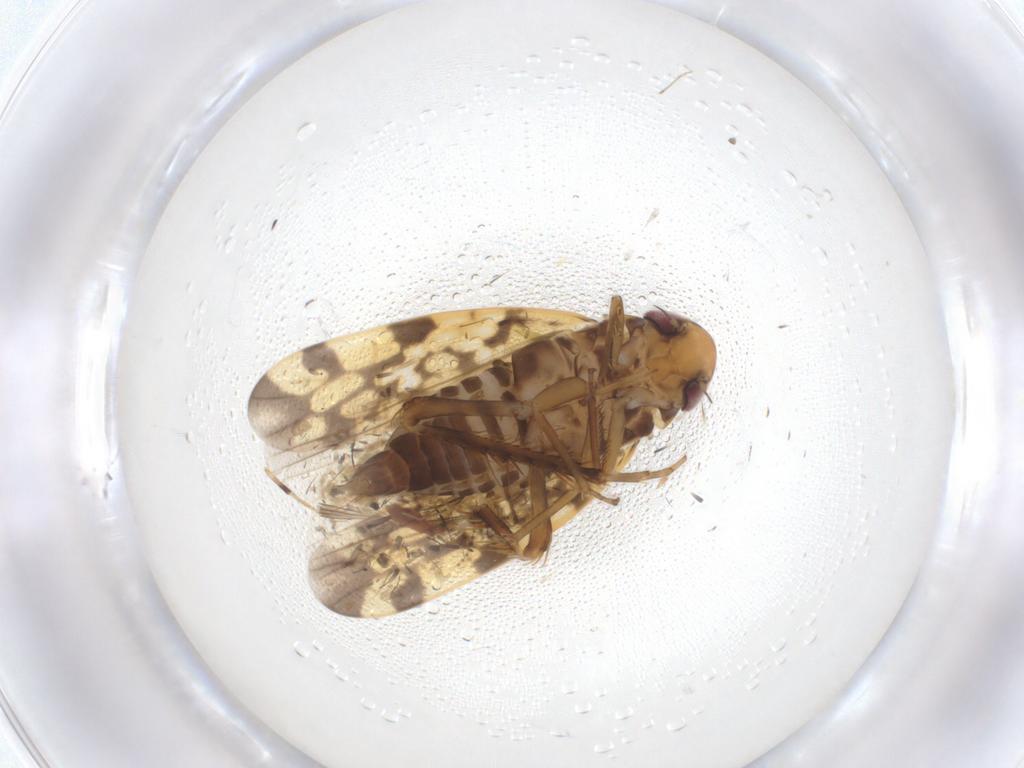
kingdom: Animalia
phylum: Arthropoda
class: Insecta
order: Hemiptera
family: Cicadellidae
